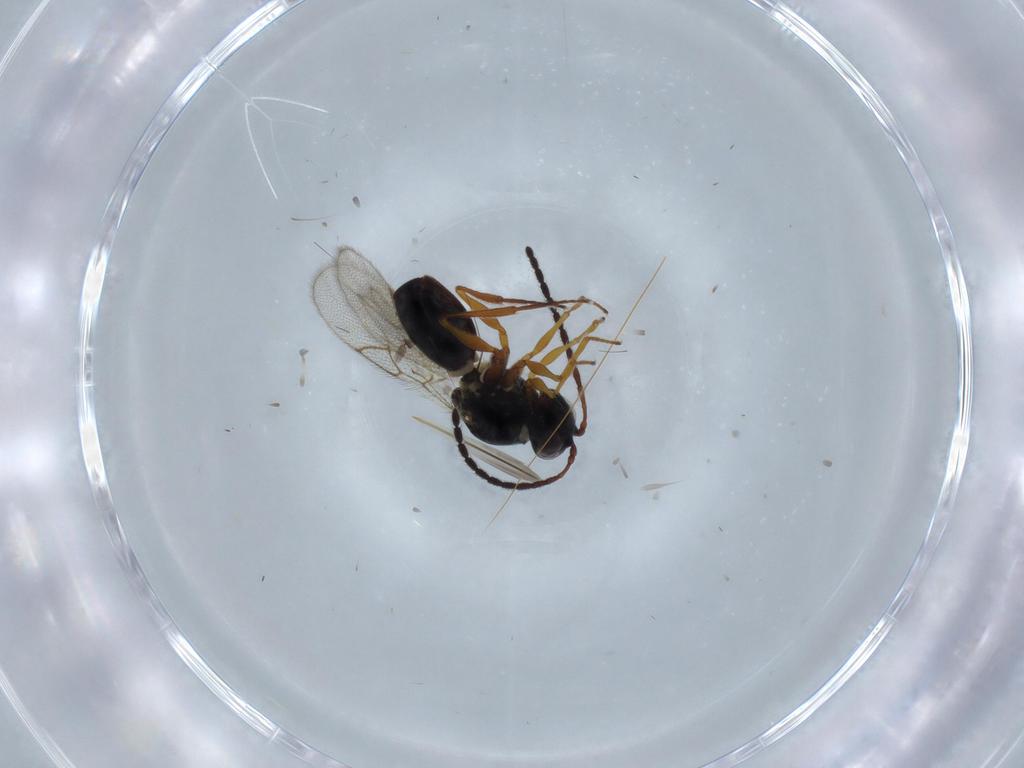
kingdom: Animalia
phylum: Arthropoda
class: Insecta
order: Hymenoptera
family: Figitidae
